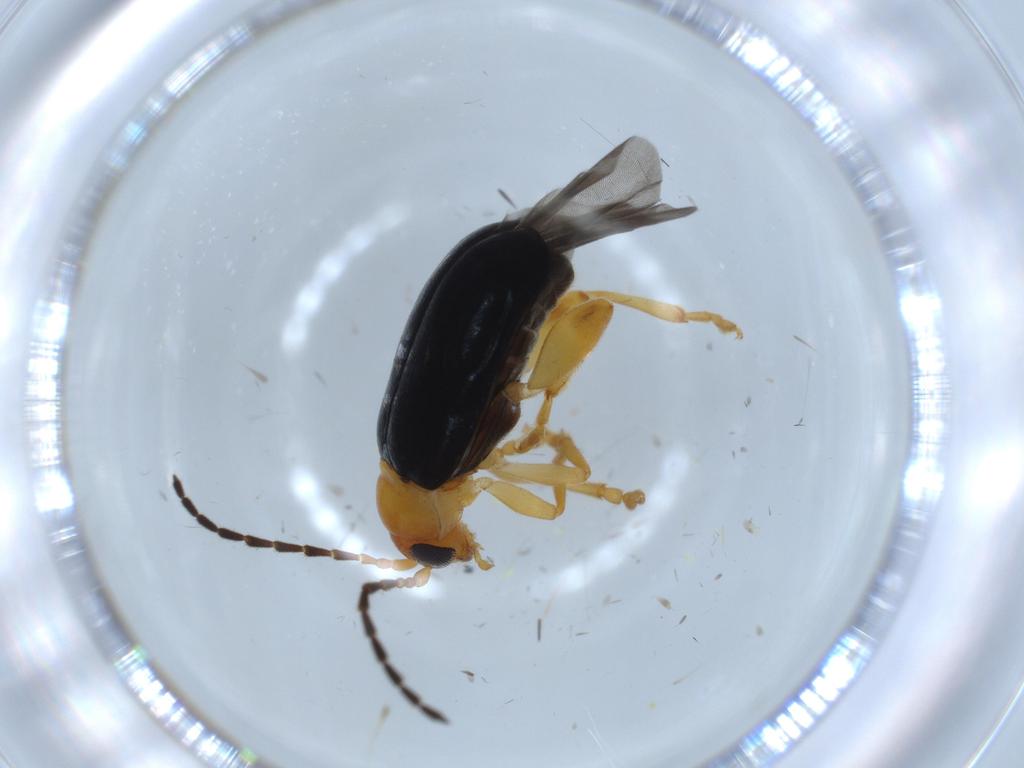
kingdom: Animalia
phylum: Arthropoda
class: Insecta
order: Coleoptera
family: Chrysomelidae
